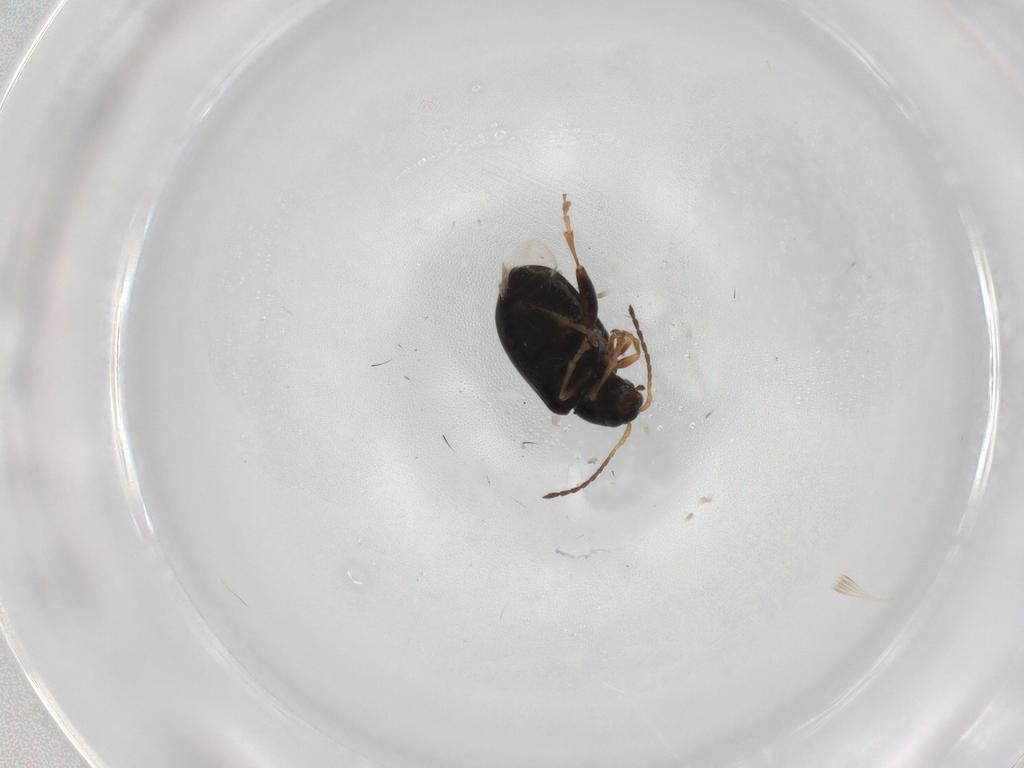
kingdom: Animalia
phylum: Arthropoda
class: Insecta
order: Coleoptera
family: Chrysomelidae
